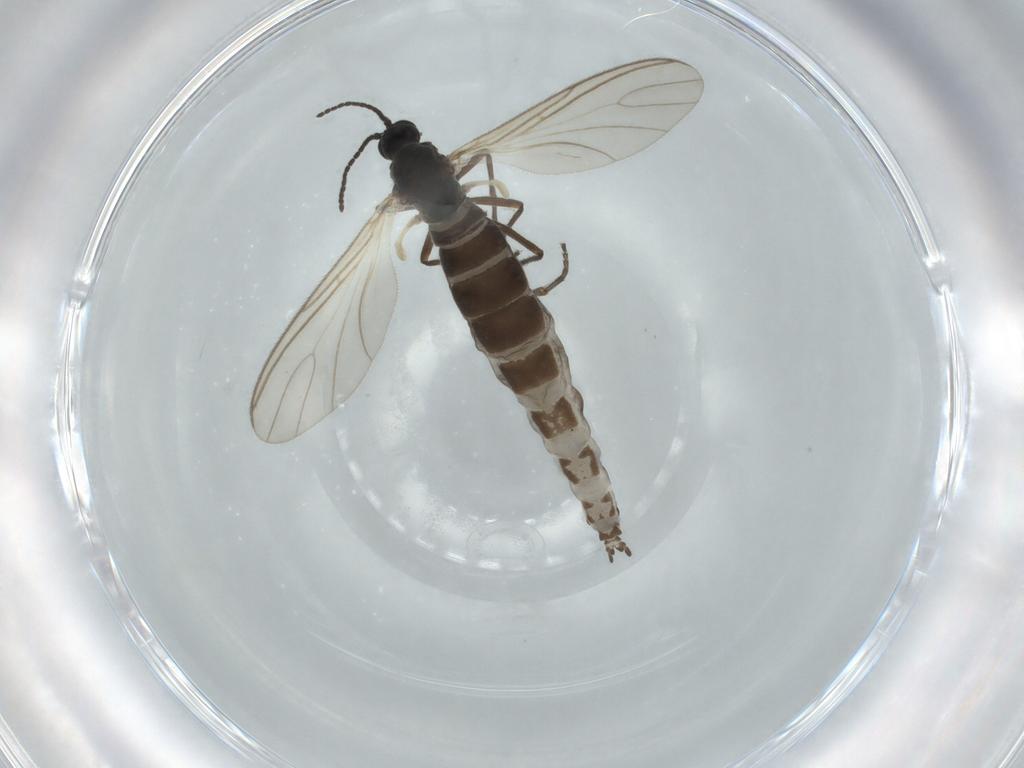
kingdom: Animalia
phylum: Arthropoda
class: Insecta
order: Diptera
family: Sciaridae
